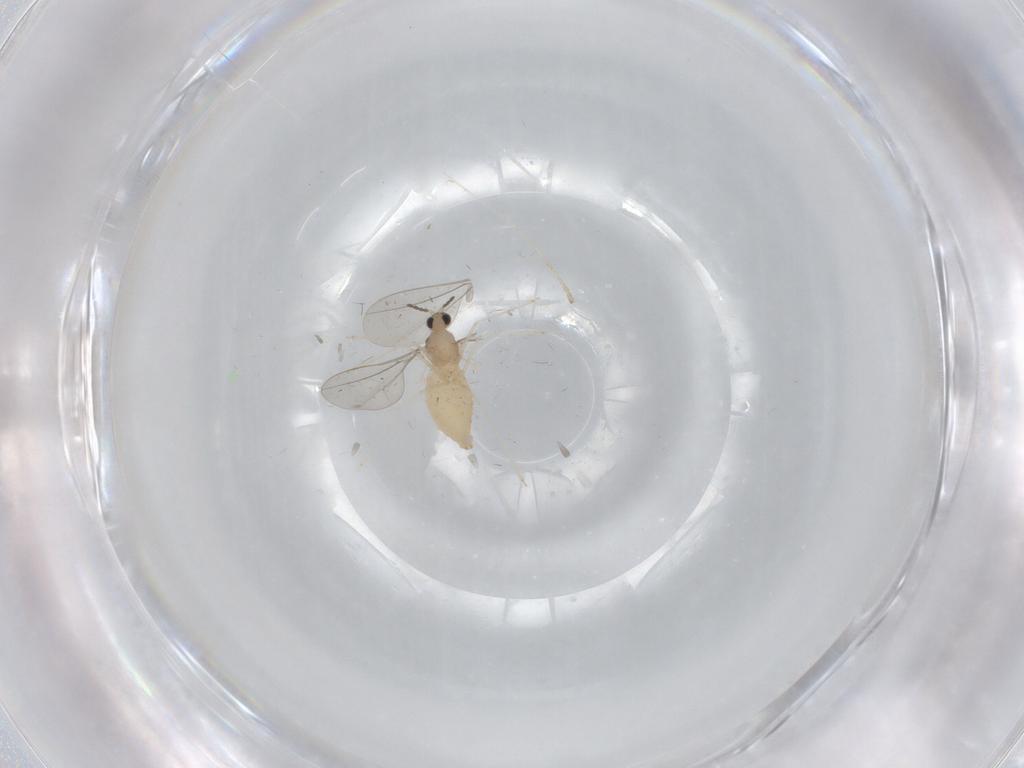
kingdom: Animalia
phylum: Arthropoda
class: Insecta
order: Diptera
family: Cecidomyiidae
